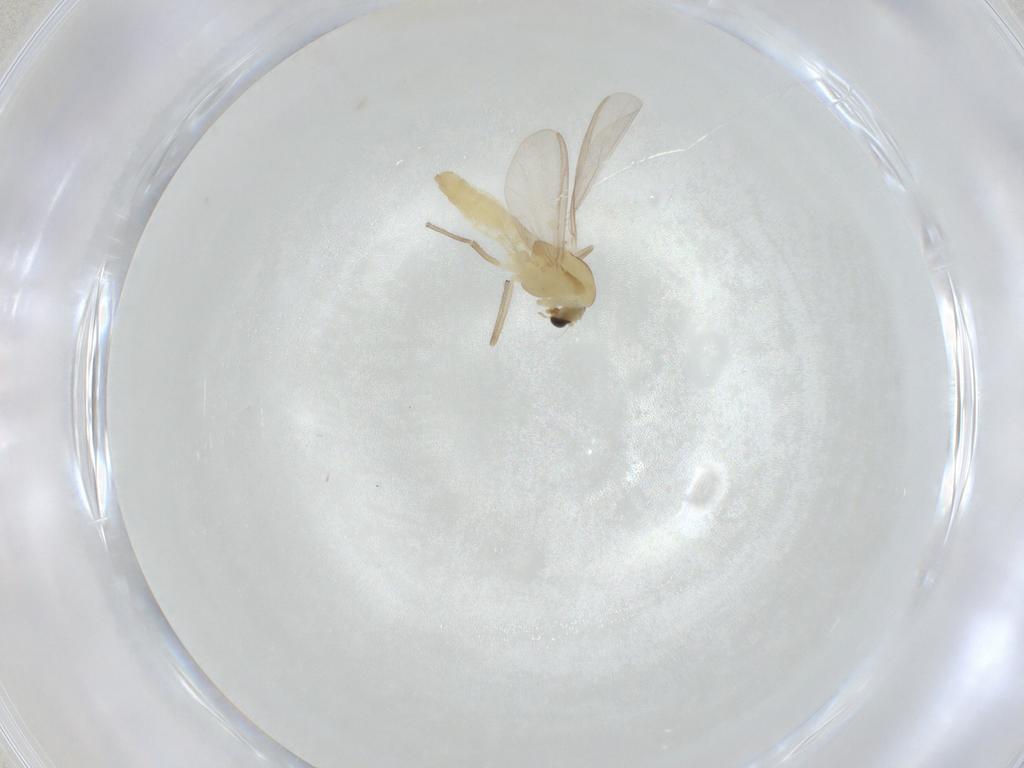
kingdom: Animalia
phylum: Arthropoda
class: Insecta
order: Diptera
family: Chironomidae
